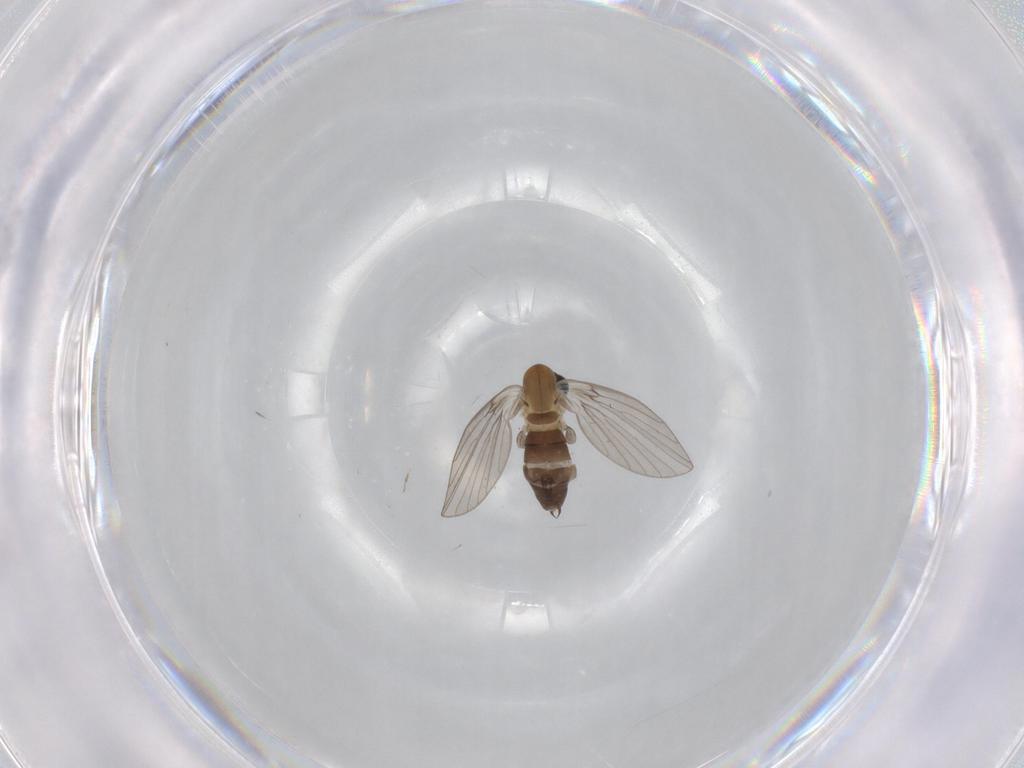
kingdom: Animalia
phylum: Arthropoda
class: Insecta
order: Diptera
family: Psychodidae
